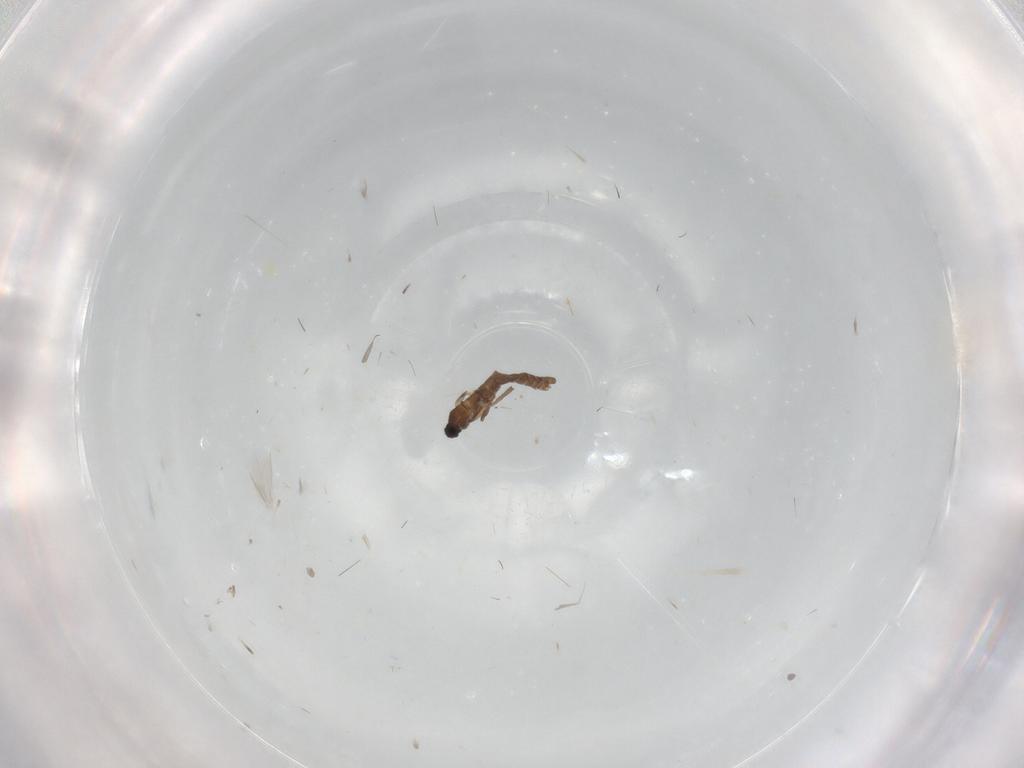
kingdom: Animalia
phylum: Arthropoda
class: Insecta
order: Diptera
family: Sciaridae
